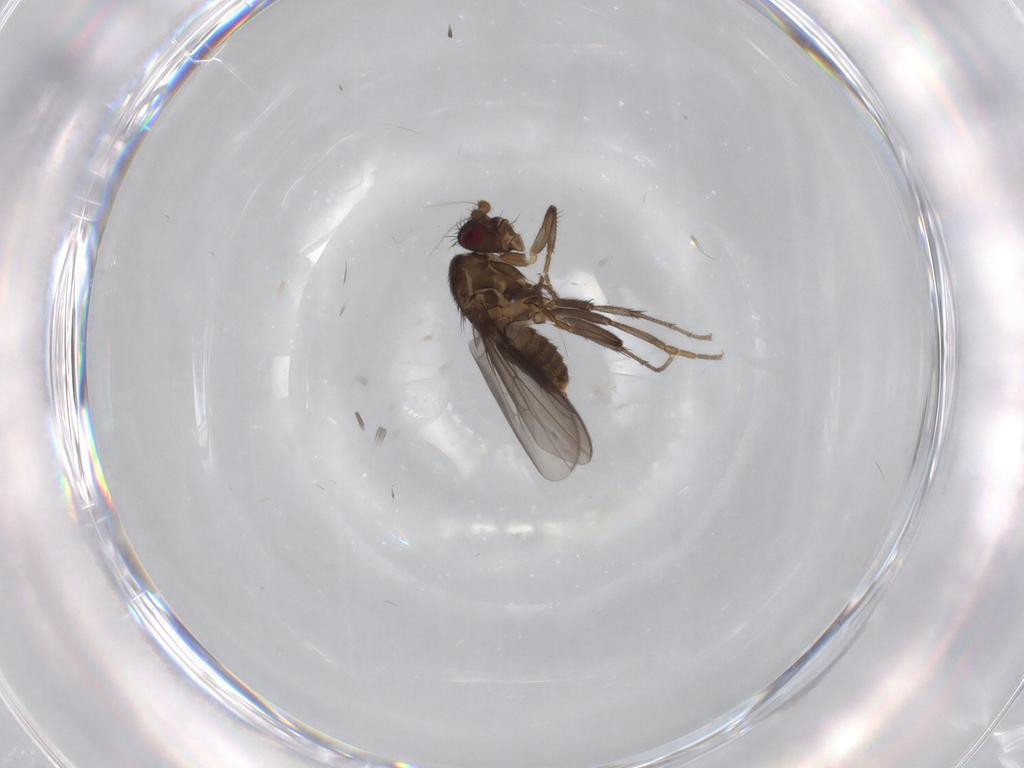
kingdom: Animalia
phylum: Arthropoda
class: Insecta
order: Diptera
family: Sphaeroceridae
